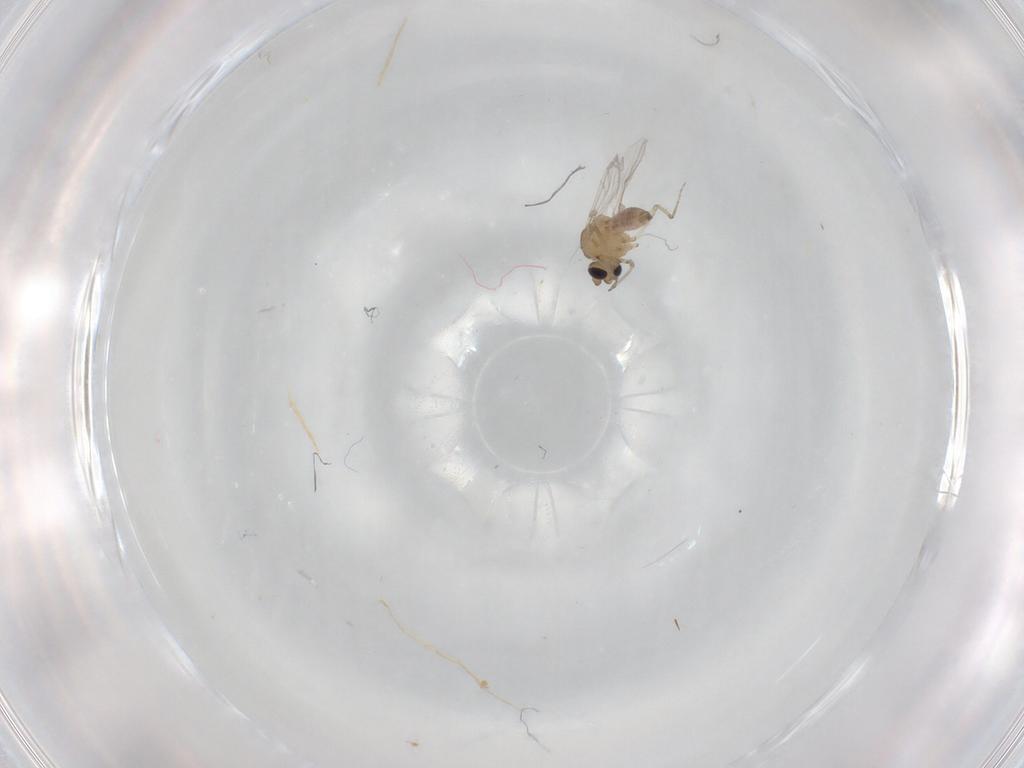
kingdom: Animalia
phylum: Arthropoda
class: Insecta
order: Diptera
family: Ceratopogonidae
